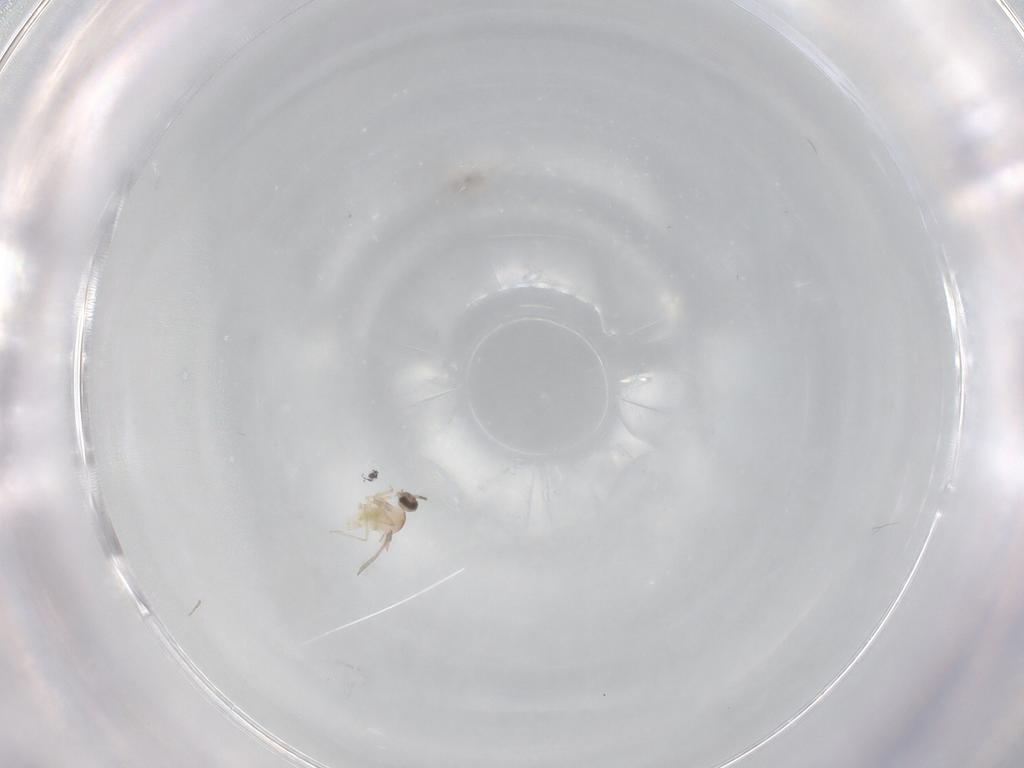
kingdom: Animalia
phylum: Arthropoda
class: Insecta
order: Diptera
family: Cecidomyiidae
